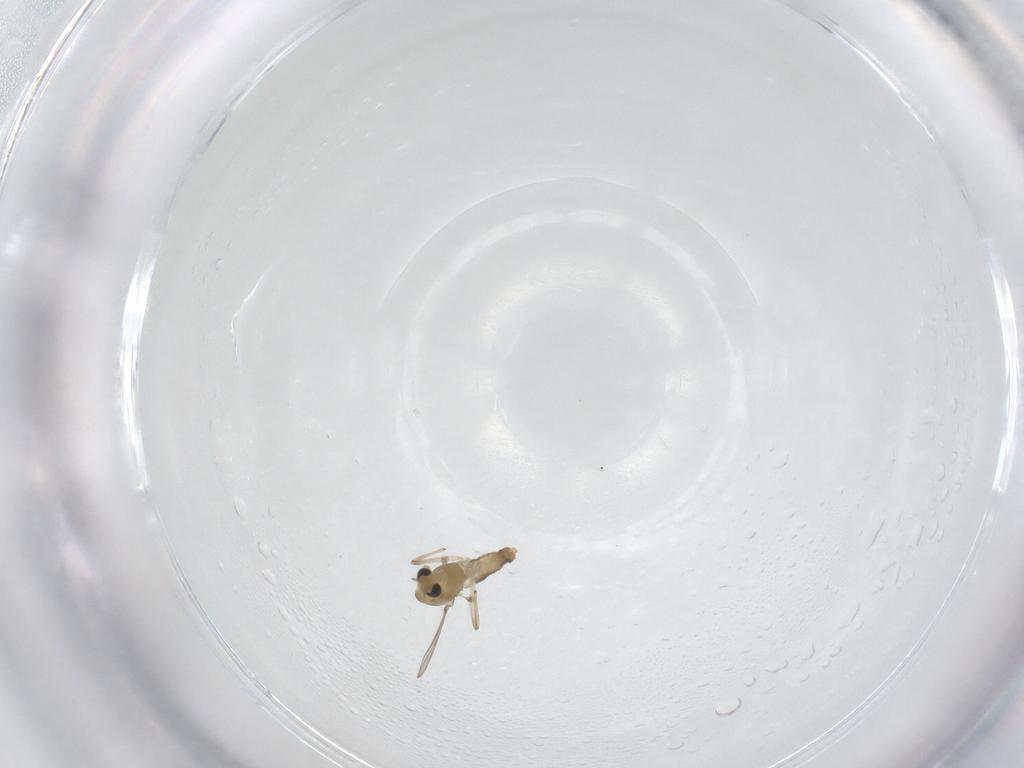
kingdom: Animalia
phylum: Arthropoda
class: Insecta
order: Diptera
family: Chironomidae
